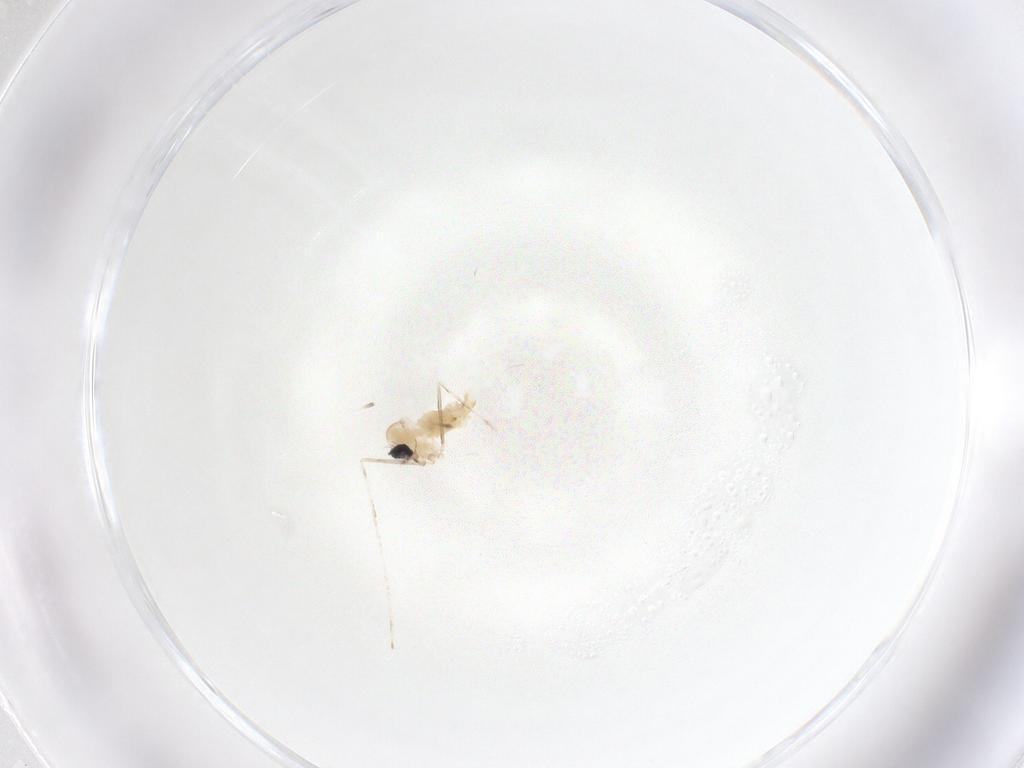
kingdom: Animalia
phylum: Arthropoda
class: Insecta
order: Diptera
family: Cecidomyiidae
